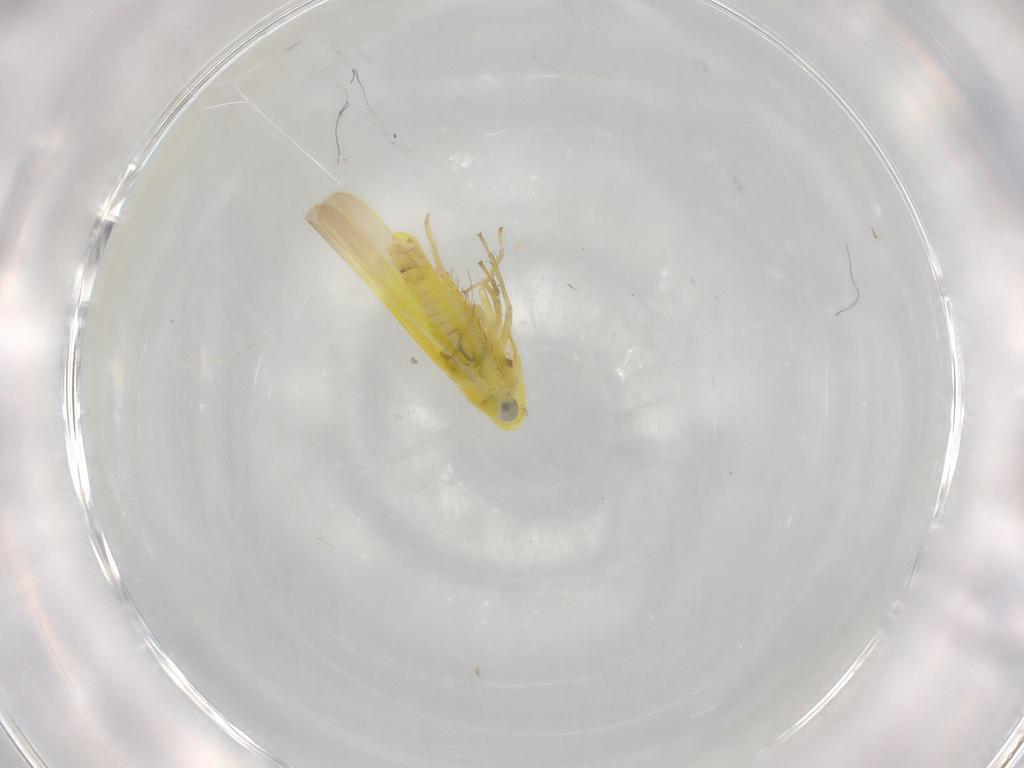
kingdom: Animalia
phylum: Arthropoda
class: Insecta
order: Hemiptera
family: Cicadellidae
